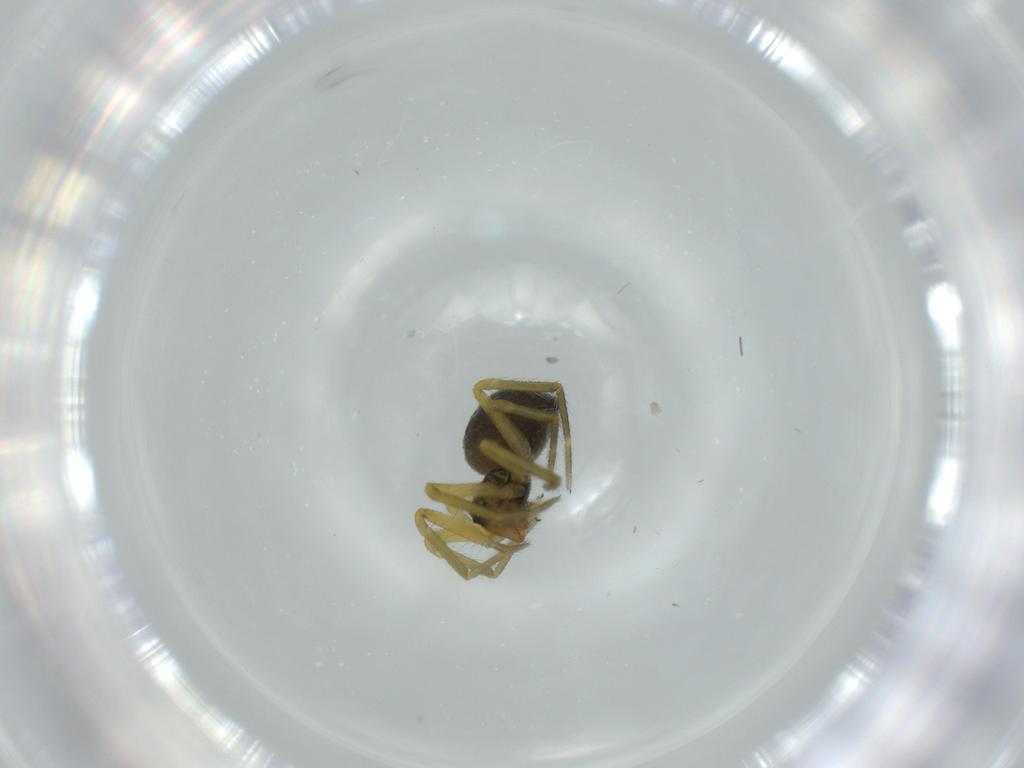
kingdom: Animalia
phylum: Arthropoda
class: Arachnida
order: Araneae
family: Linyphiidae
